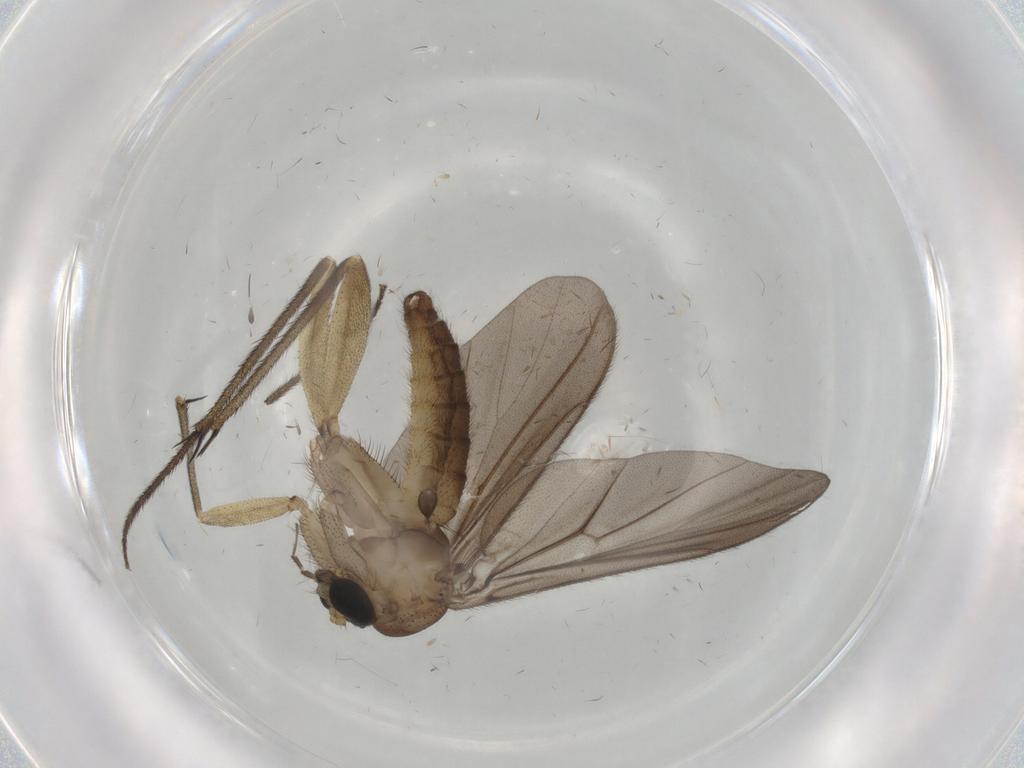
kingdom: Animalia
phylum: Arthropoda
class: Insecta
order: Diptera
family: Cecidomyiidae
